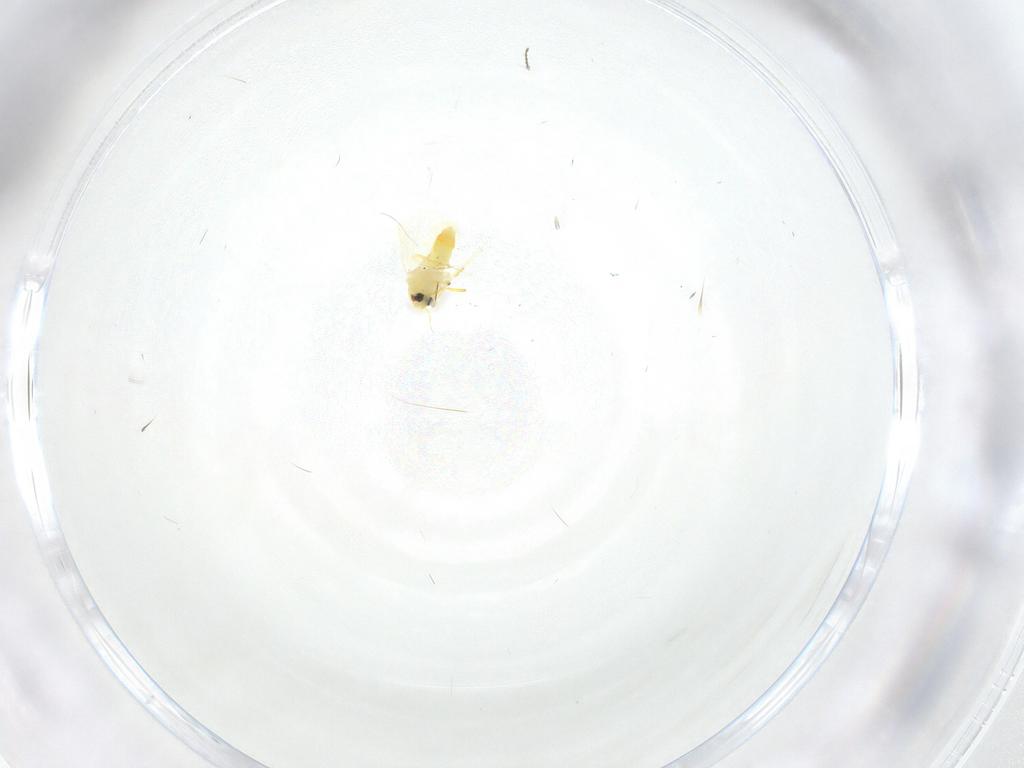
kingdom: Animalia
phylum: Arthropoda
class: Insecta
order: Hemiptera
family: Aleyrodidae
